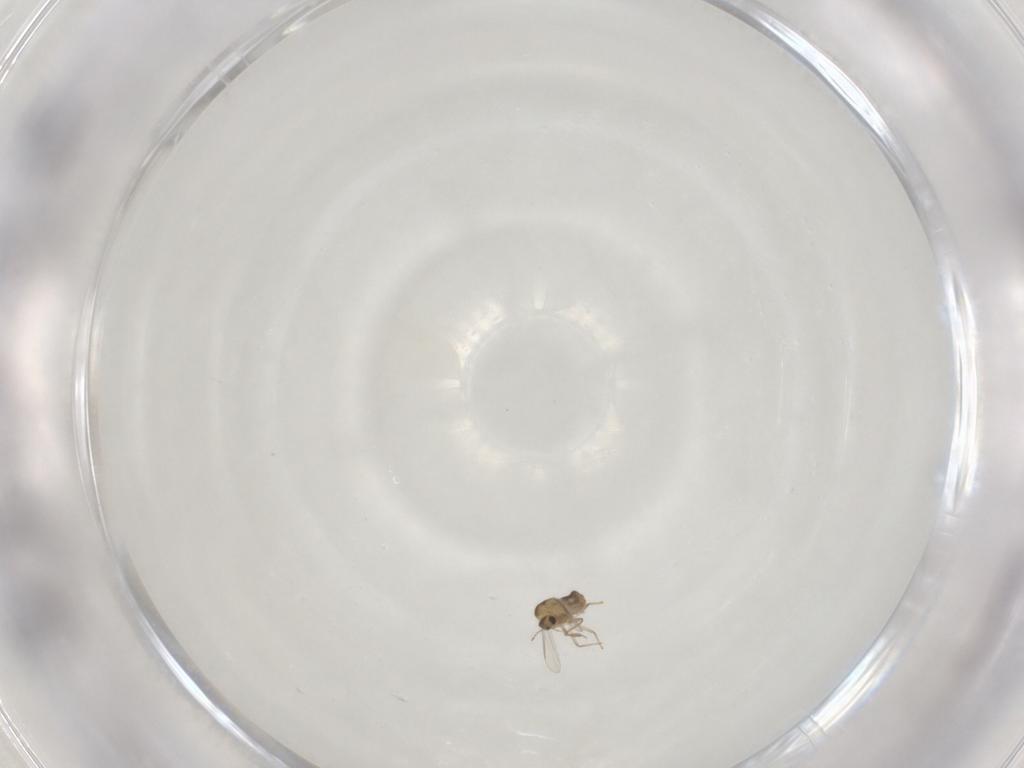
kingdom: Animalia
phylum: Arthropoda
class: Insecta
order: Diptera
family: Chironomidae
